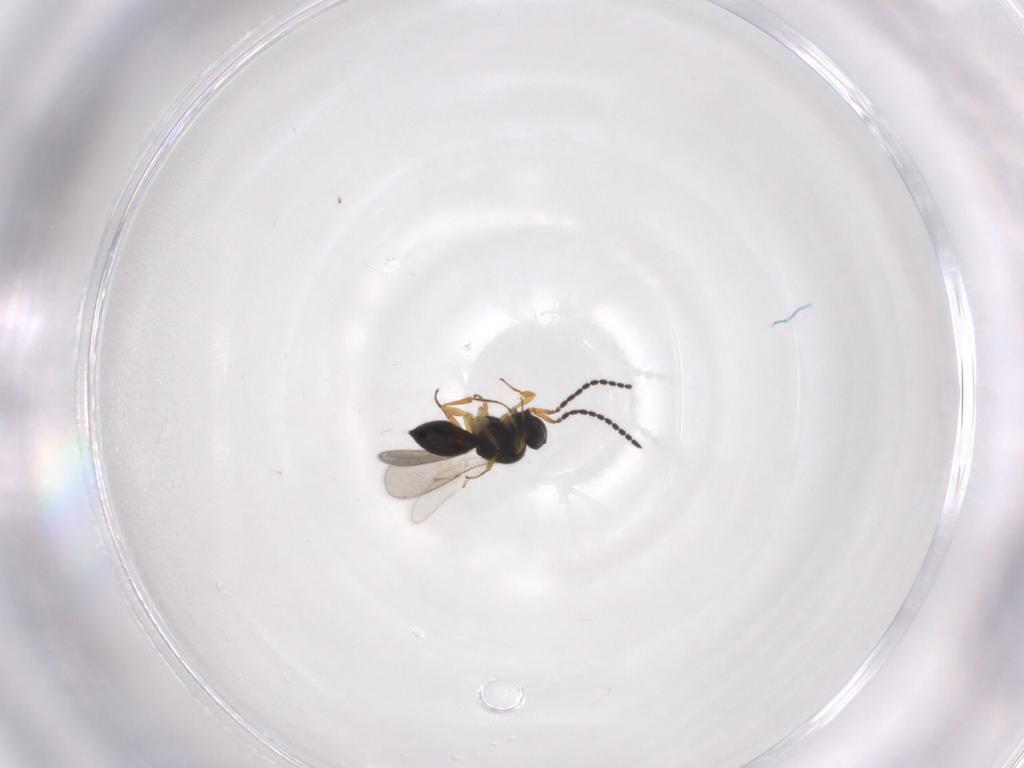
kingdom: Animalia
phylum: Arthropoda
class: Insecta
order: Hymenoptera
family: Scelionidae
